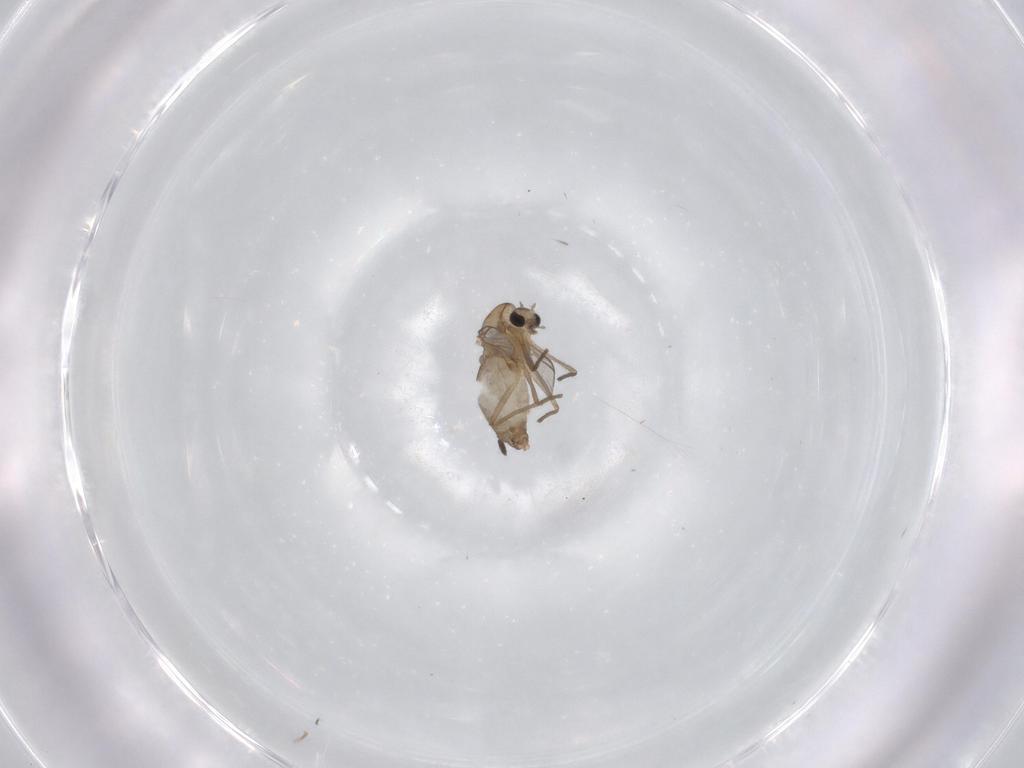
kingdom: Animalia
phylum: Arthropoda
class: Insecta
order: Diptera
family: Chironomidae
